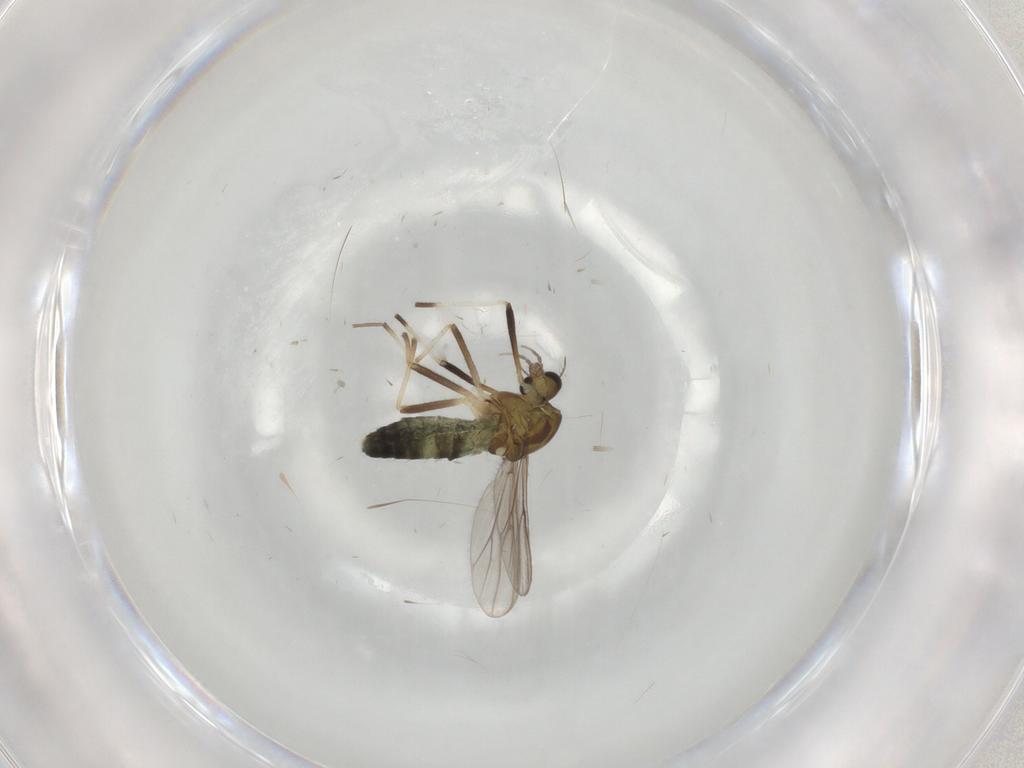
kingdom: Animalia
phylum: Arthropoda
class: Insecta
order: Diptera
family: Chironomidae
